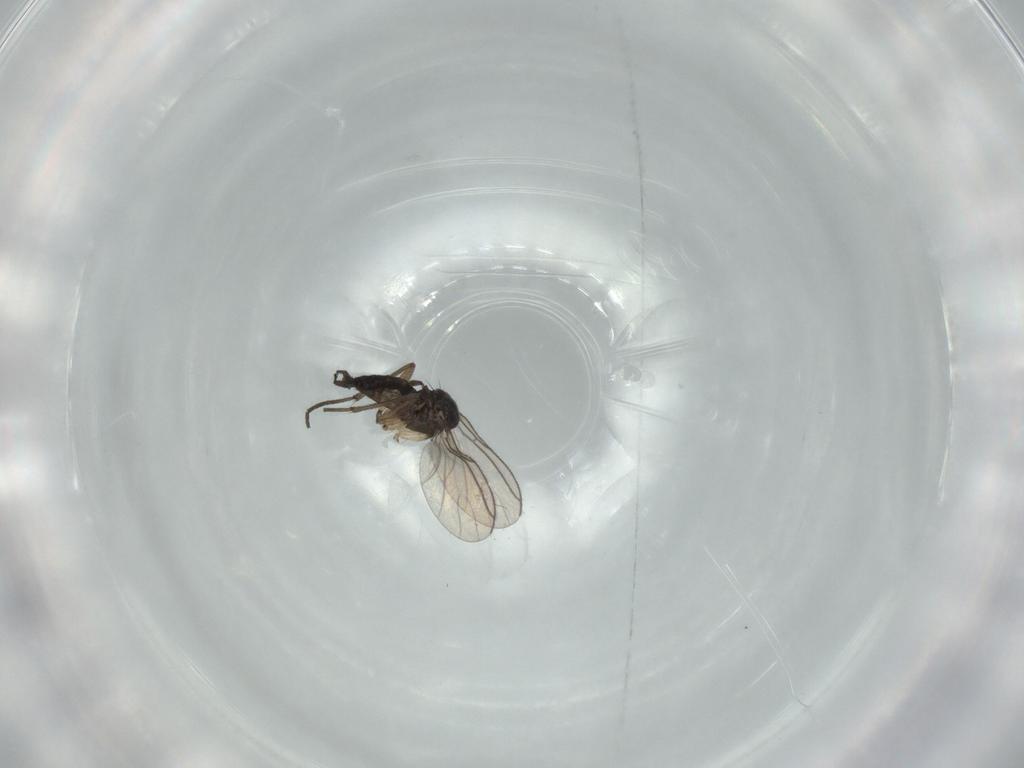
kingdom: Animalia
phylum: Arthropoda
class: Insecta
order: Diptera
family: Sciaridae
